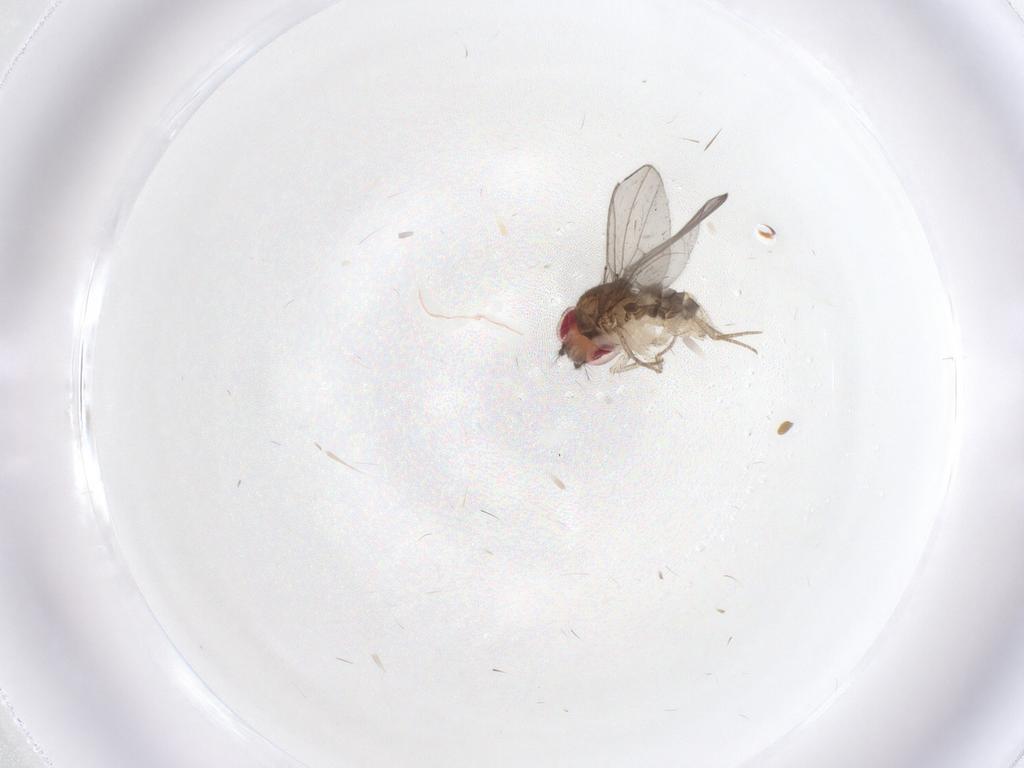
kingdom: Animalia
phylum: Arthropoda
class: Insecta
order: Diptera
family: Drosophilidae
